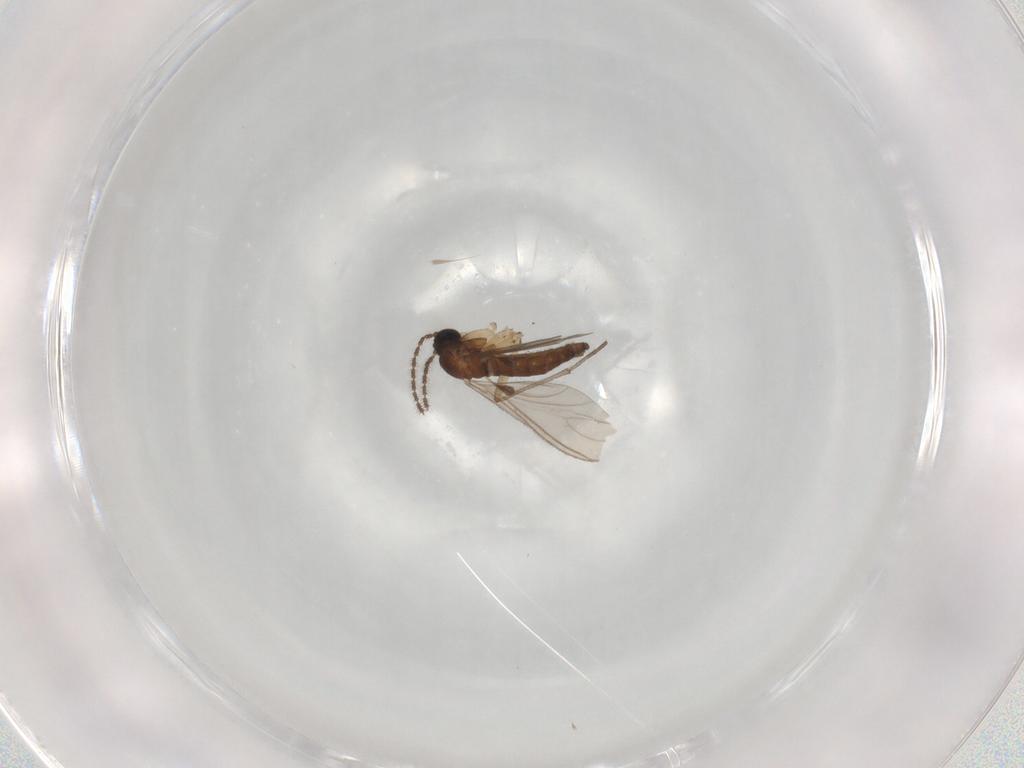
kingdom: Animalia
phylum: Arthropoda
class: Insecta
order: Diptera
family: Sciaridae
